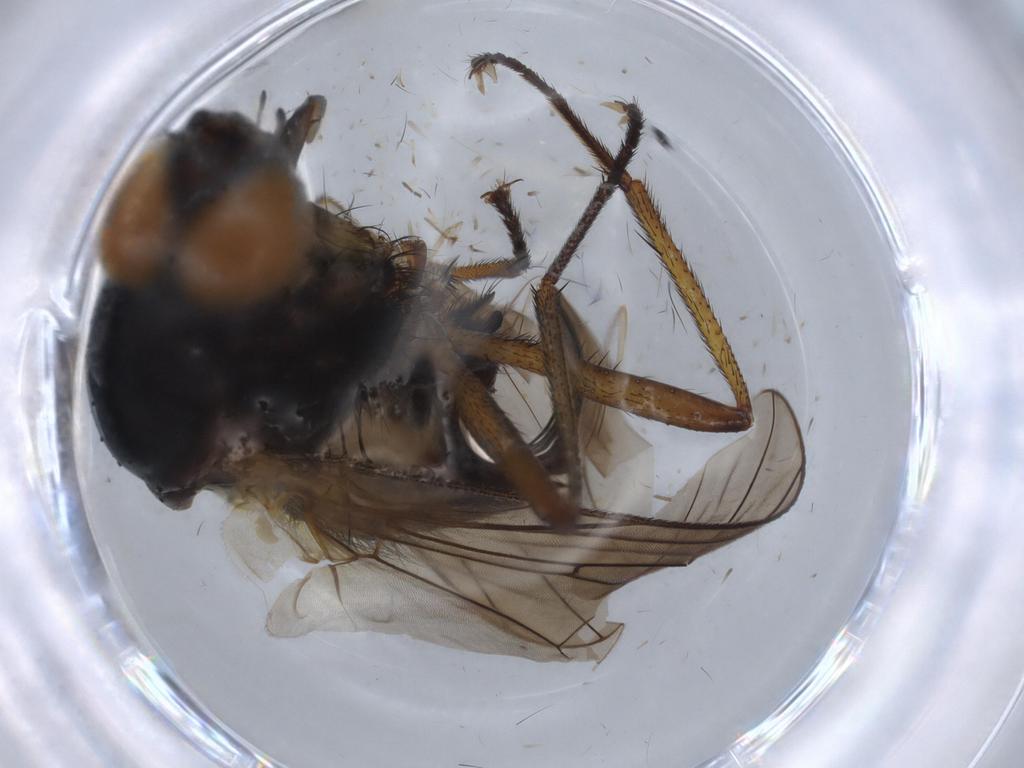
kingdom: Animalia
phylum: Arthropoda
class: Insecta
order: Diptera
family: Anthomyiidae
